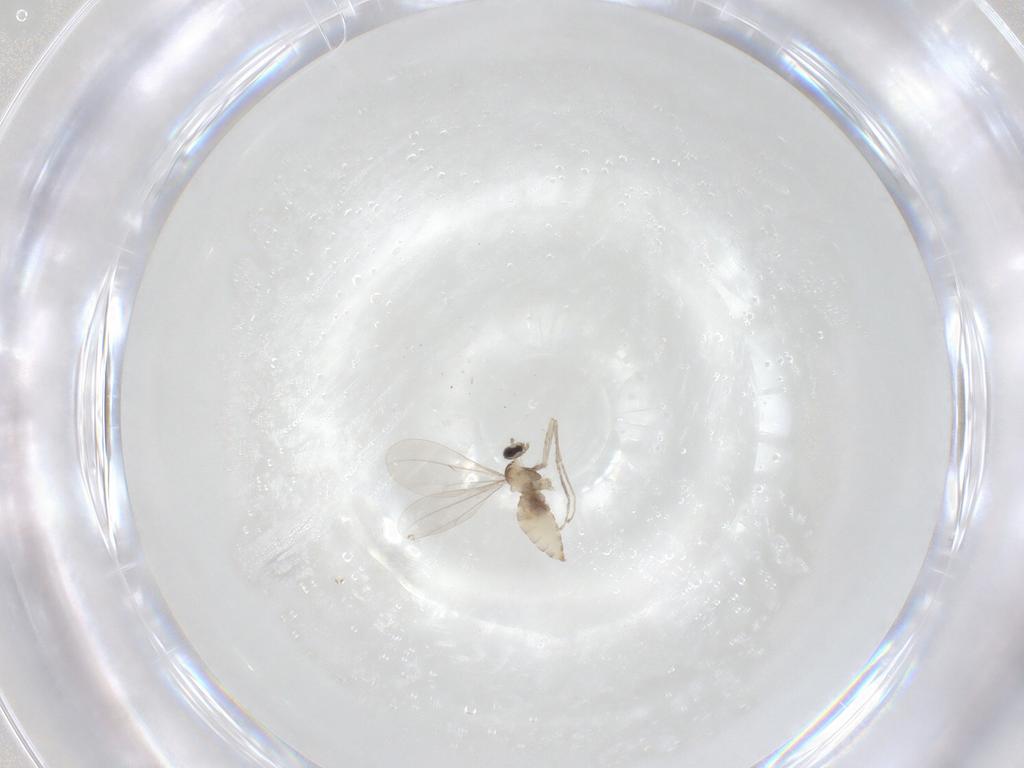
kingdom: Animalia
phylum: Arthropoda
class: Insecta
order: Diptera
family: Cecidomyiidae
